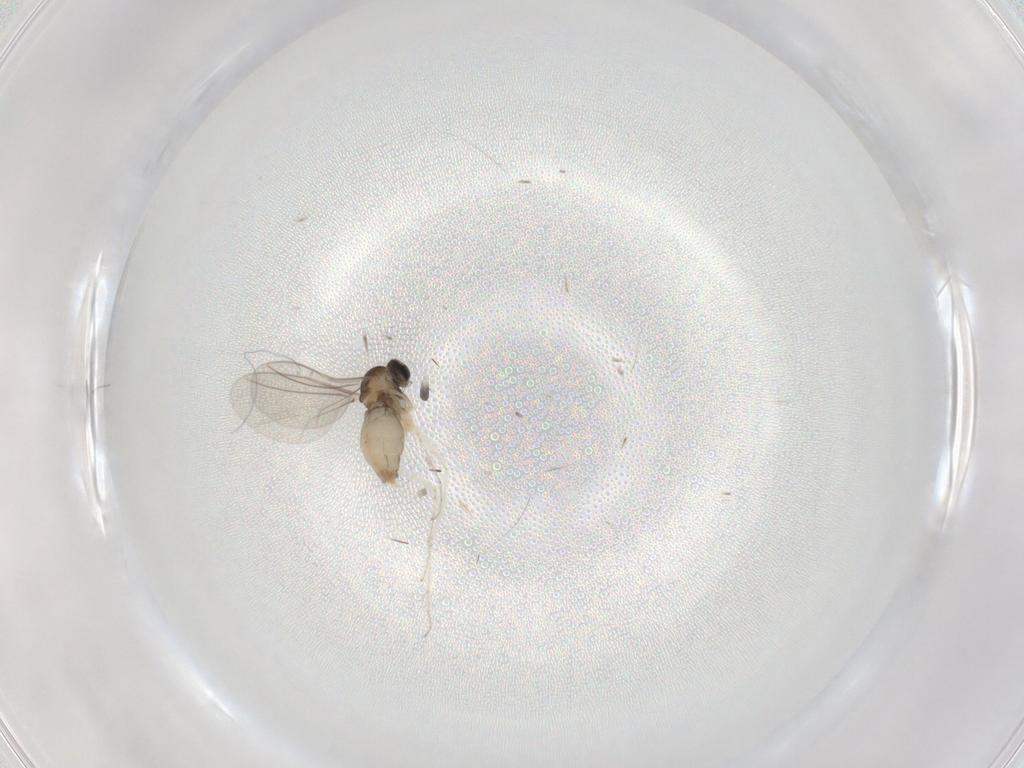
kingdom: Animalia
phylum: Arthropoda
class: Insecta
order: Diptera
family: Cecidomyiidae
